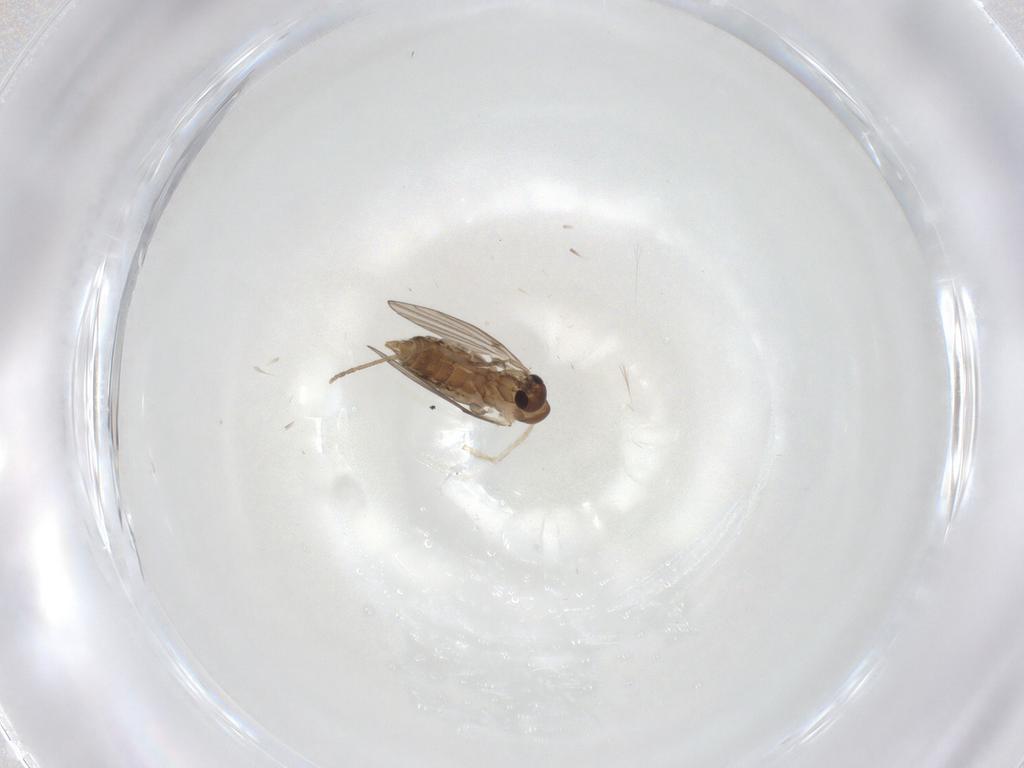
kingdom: Animalia
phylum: Arthropoda
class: Insecta
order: Diptera
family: Cecidomyiidae
